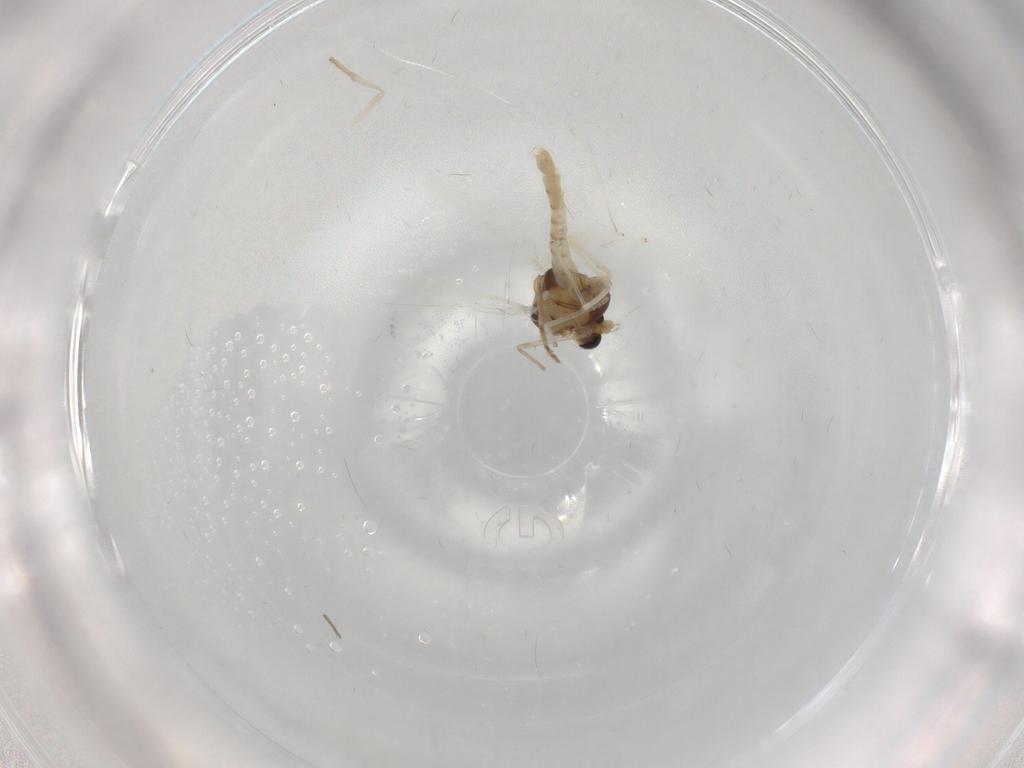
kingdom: Animalia
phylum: Arthropoda
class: Insecta
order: Diptera
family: Chironomidae
